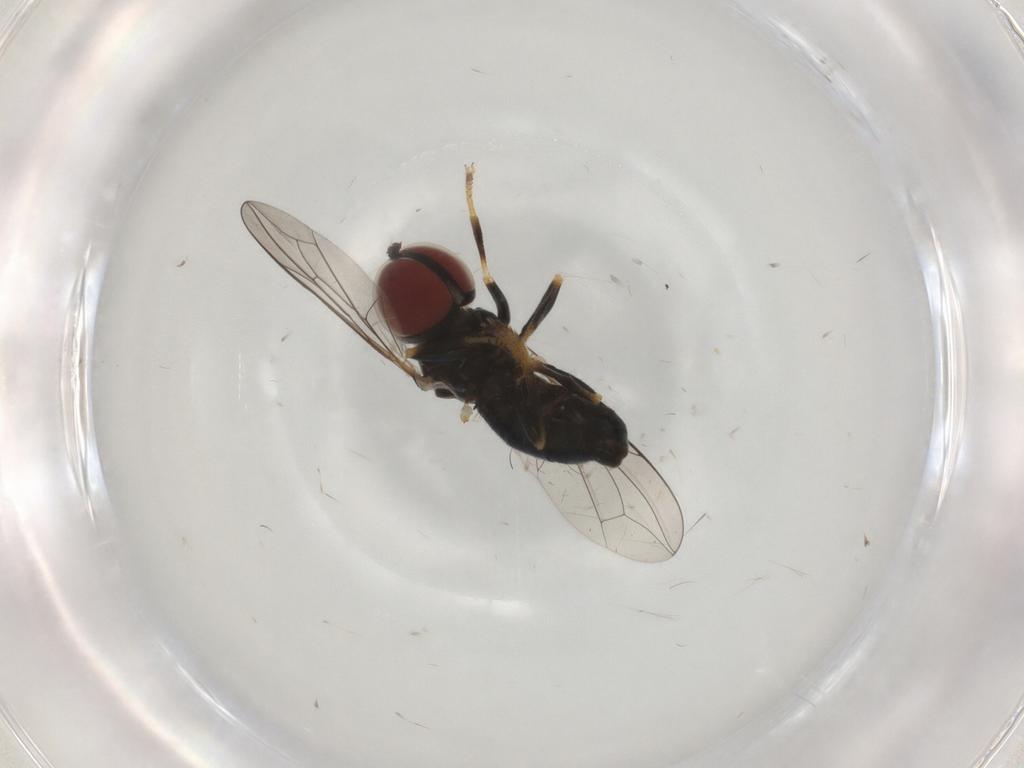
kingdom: Animalia
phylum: Arthropoda
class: Insecta
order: Diptera
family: Pipunculidae
